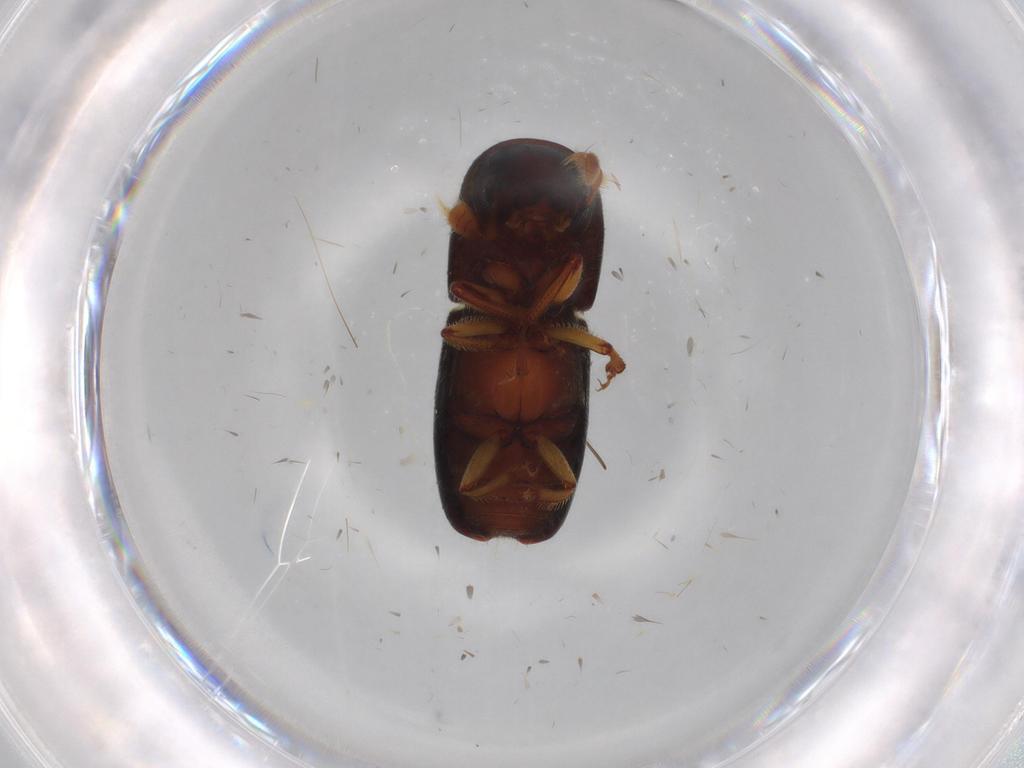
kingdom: Animalia
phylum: Arthropoda
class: Insecta
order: Coleoptera
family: Curculionidae
